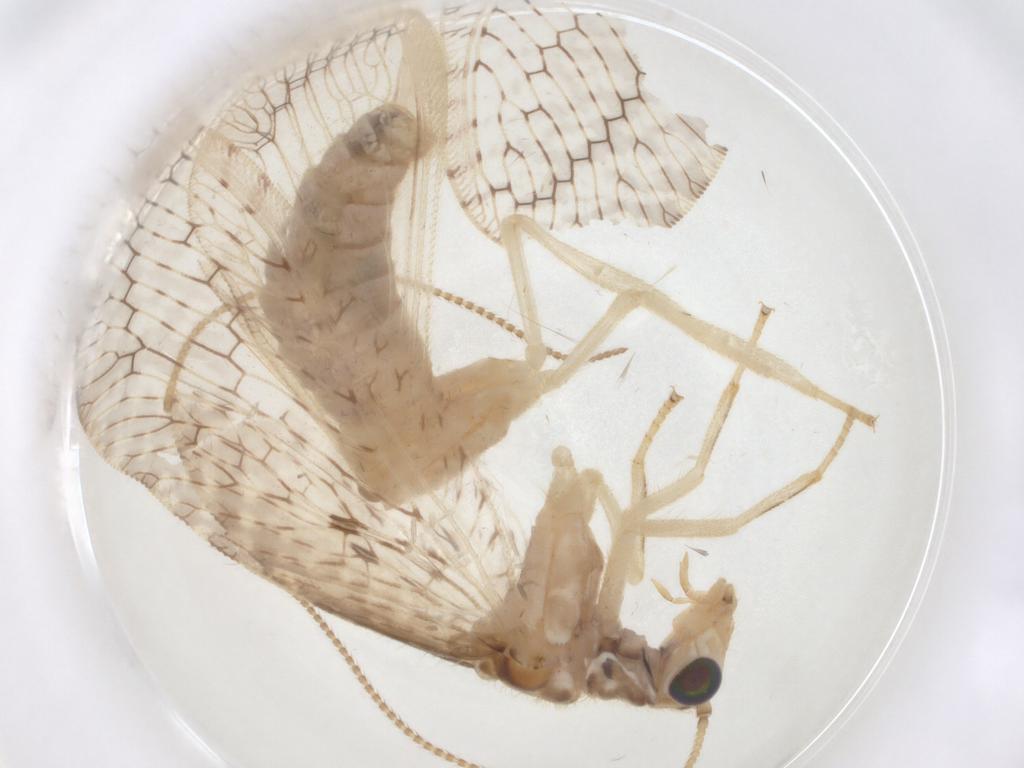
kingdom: Animalia
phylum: Arthropoda
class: Insecta
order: Neuroptera
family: Hemerobiidae
